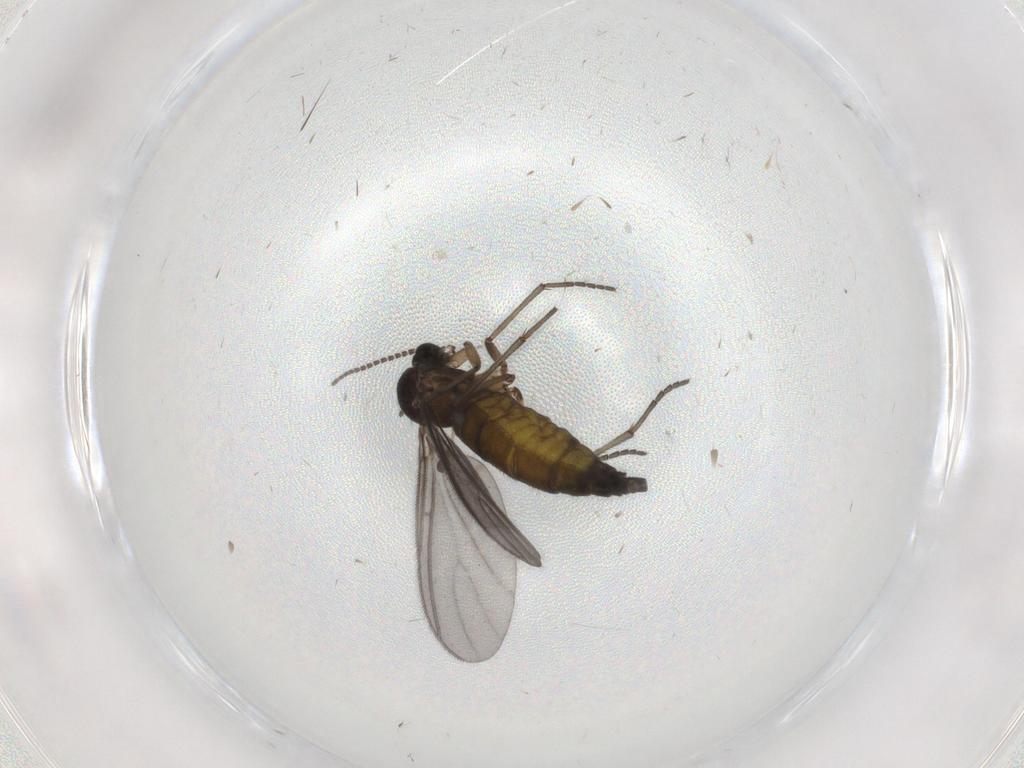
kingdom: Animalia
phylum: Arthropoda
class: Insecta
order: Diptera
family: Sciaridae
